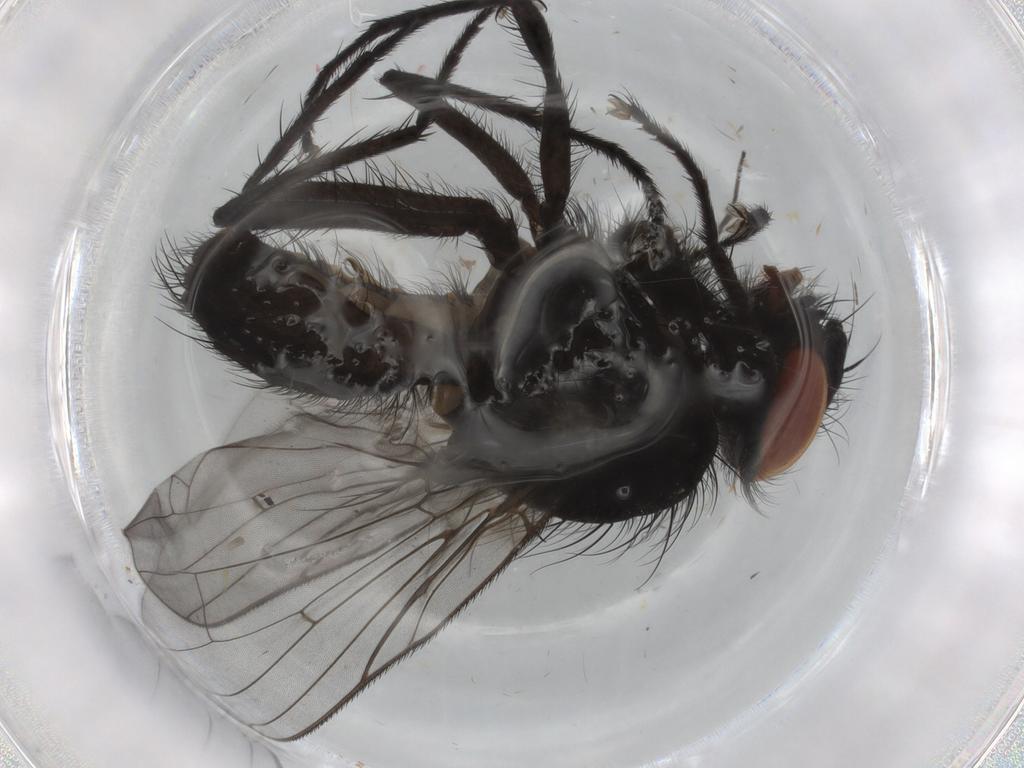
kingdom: Animalia
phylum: Arthropoda
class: Insecta
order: Diptera
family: Anthomyiidae
